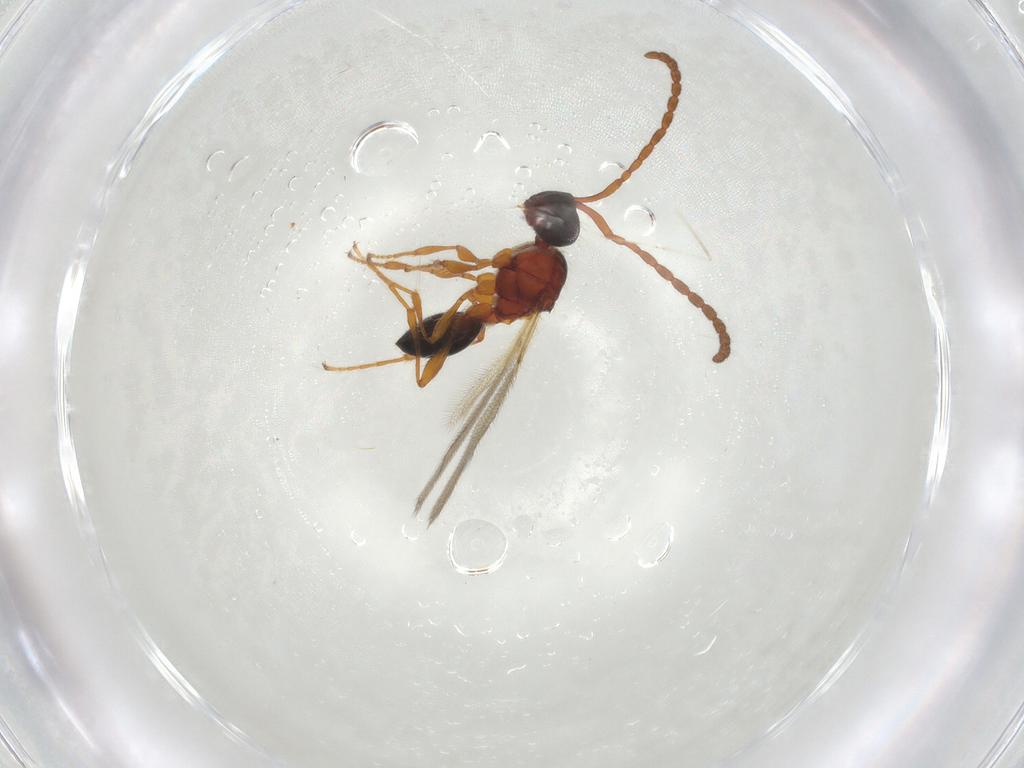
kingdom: Animalia
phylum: Arthropoda
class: Insecta
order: Hymenoptera
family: Diapriidae
